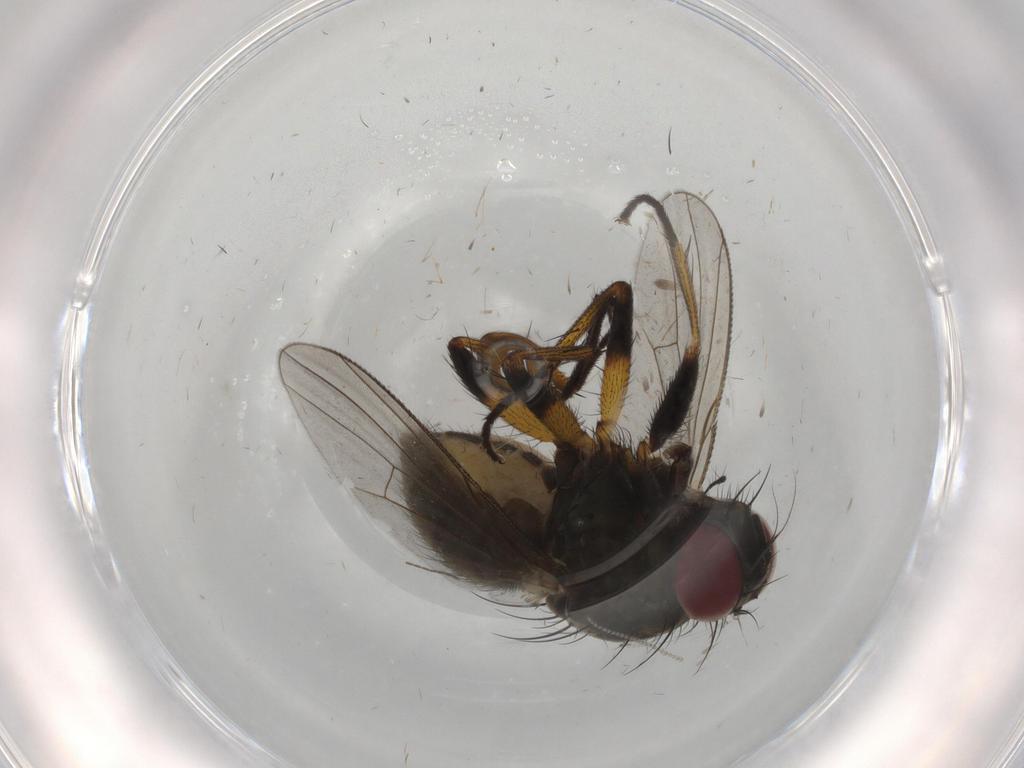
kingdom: Animalia
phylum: Arthropoda
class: Insecta
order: Diptera
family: Muscidae
